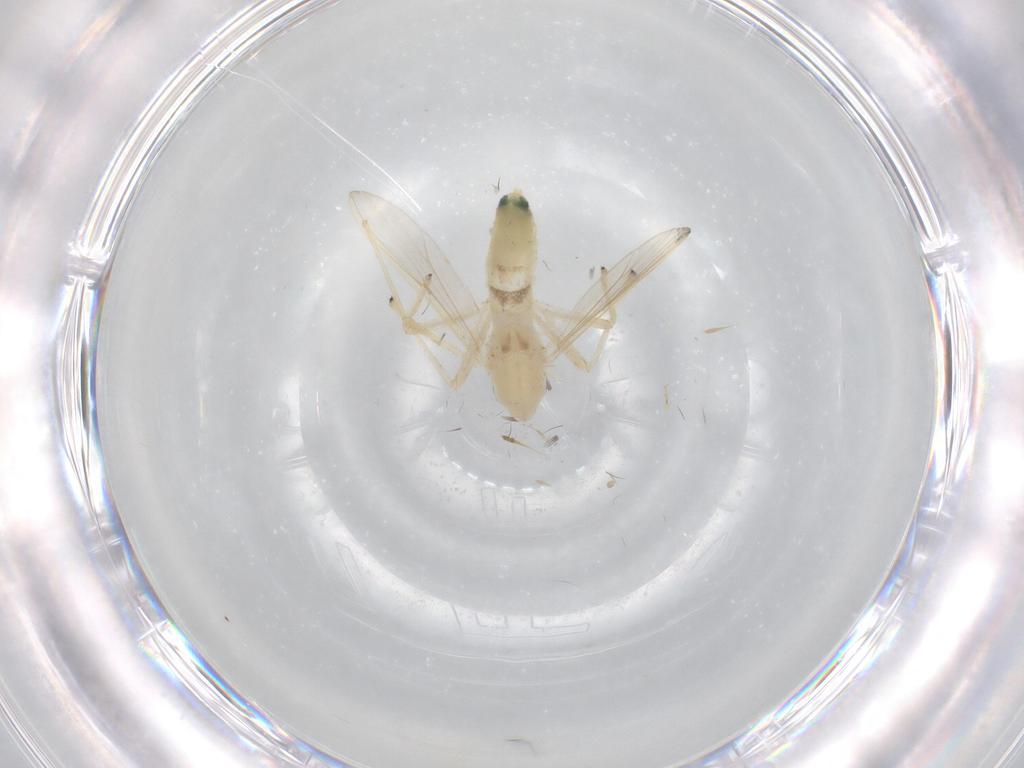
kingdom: Animalia
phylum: Arthropoda
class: Insecta
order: Diptera
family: Chironomidae
